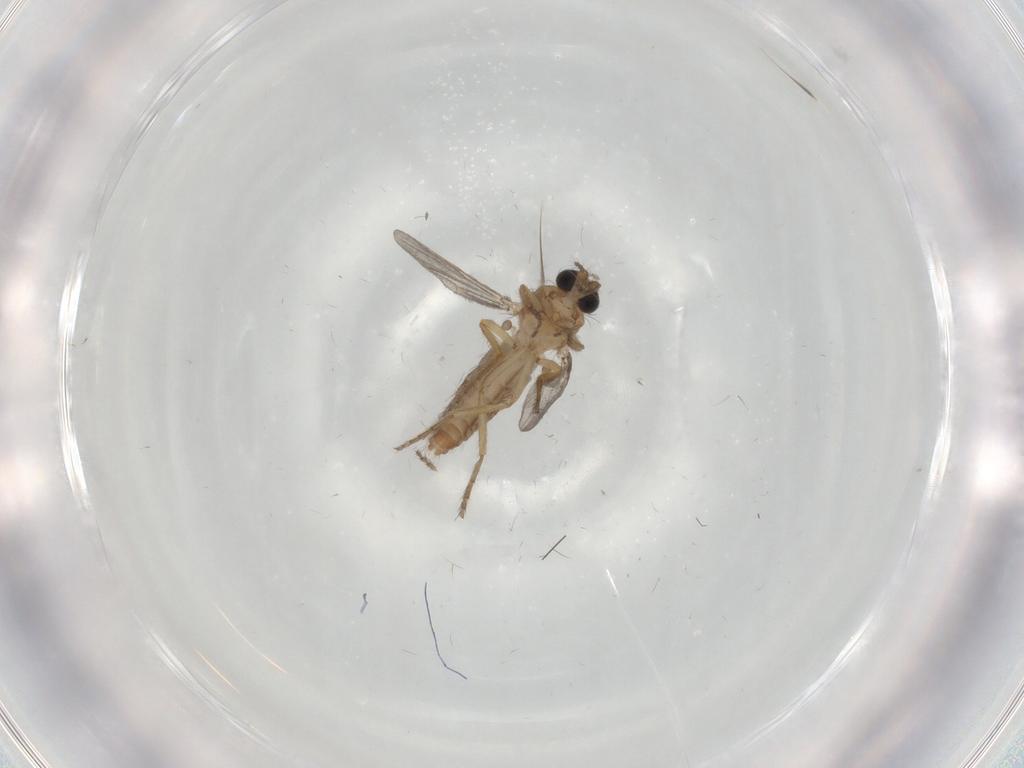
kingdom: Animalia
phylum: Arthropoda
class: Insecta
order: Diptera
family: Ceratopogonidae
